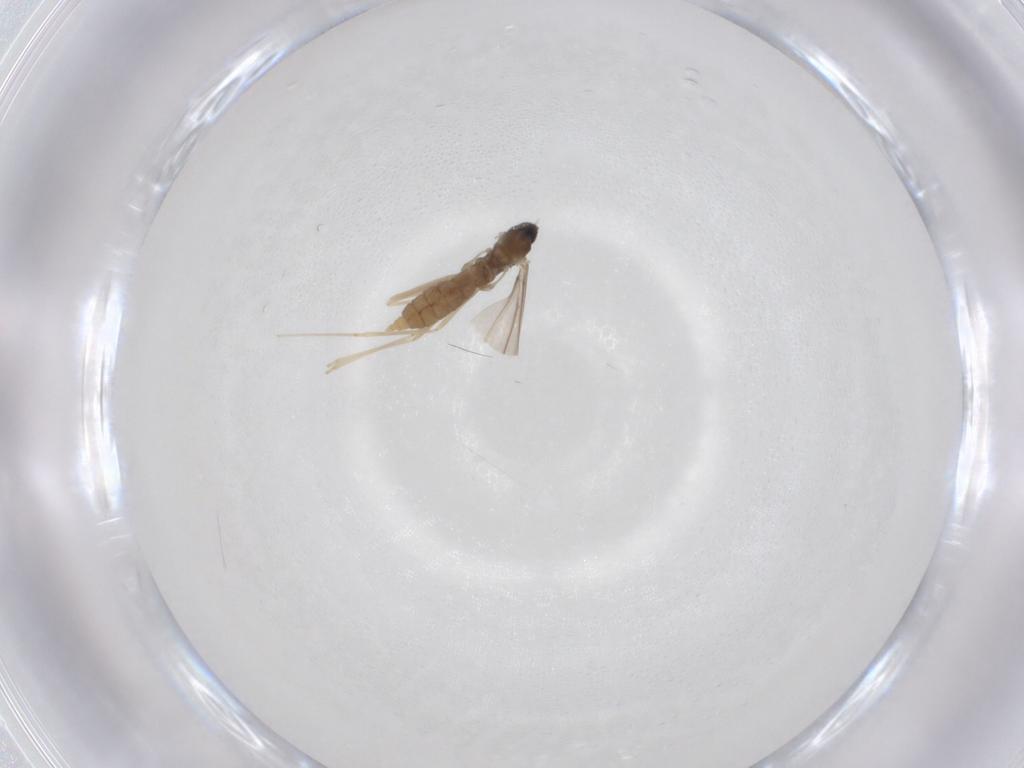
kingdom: Animalia
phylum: Arthropoda
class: Insecta
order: Diptera
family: Cecidomyiidae
